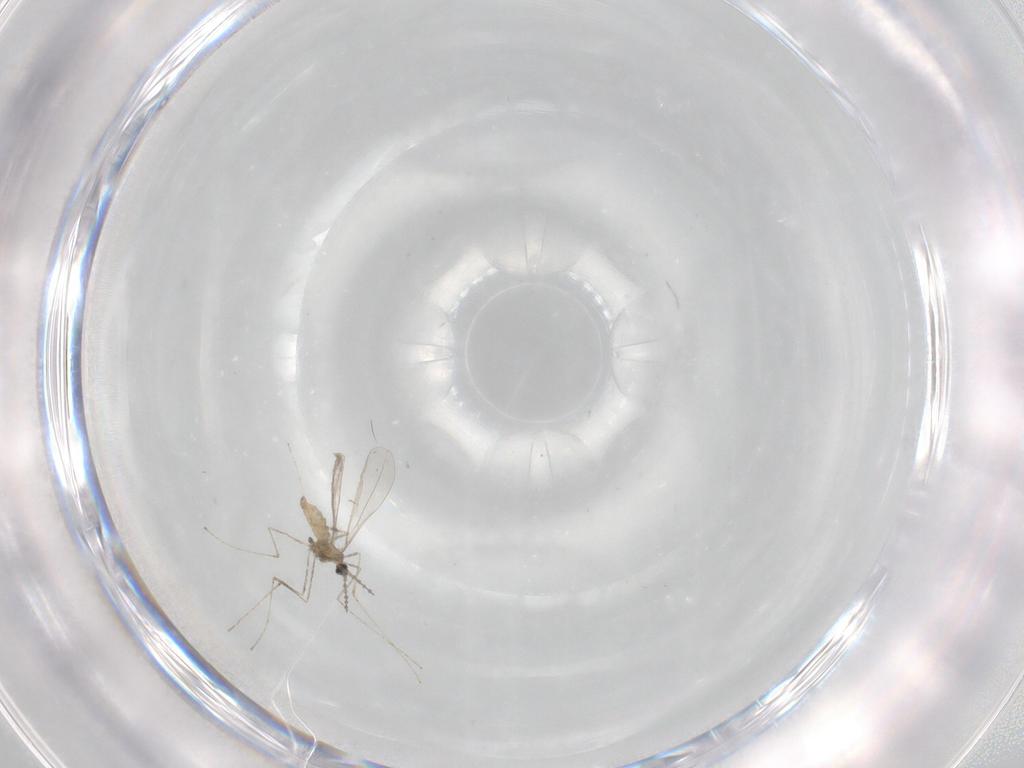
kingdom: Animalia
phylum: Arthropoda
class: Insecta
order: Diptera
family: Cecidomyiidae
